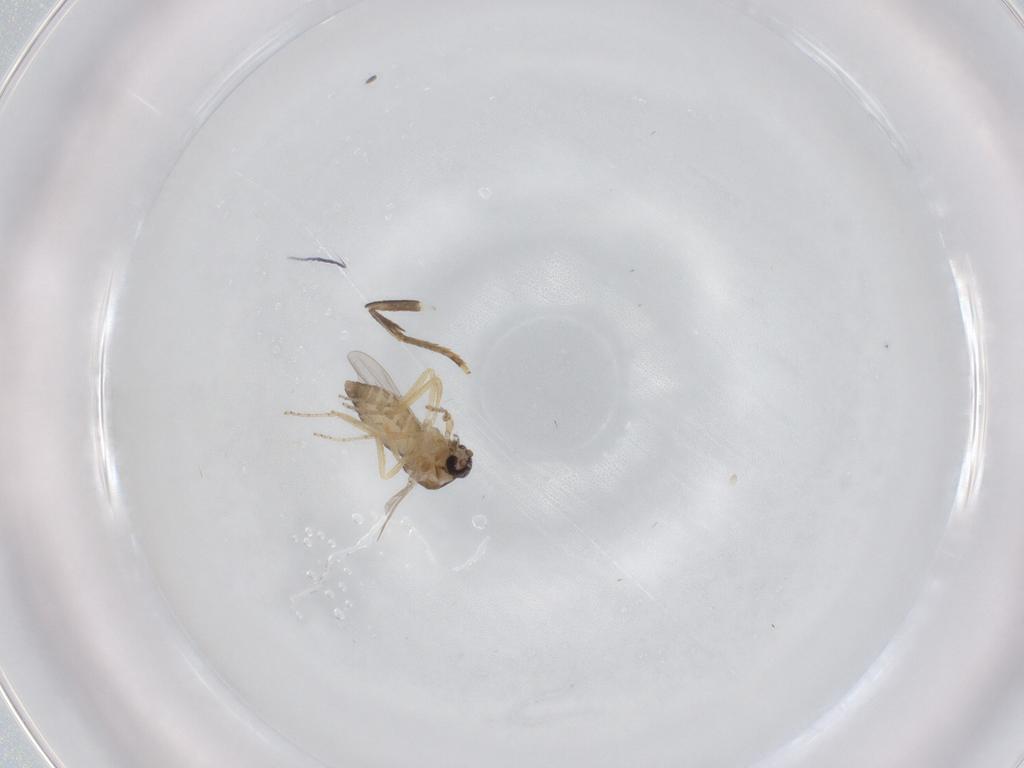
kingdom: Animalia
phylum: Arthropoda
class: Insecta
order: Diptera
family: Ceratopogonidae
